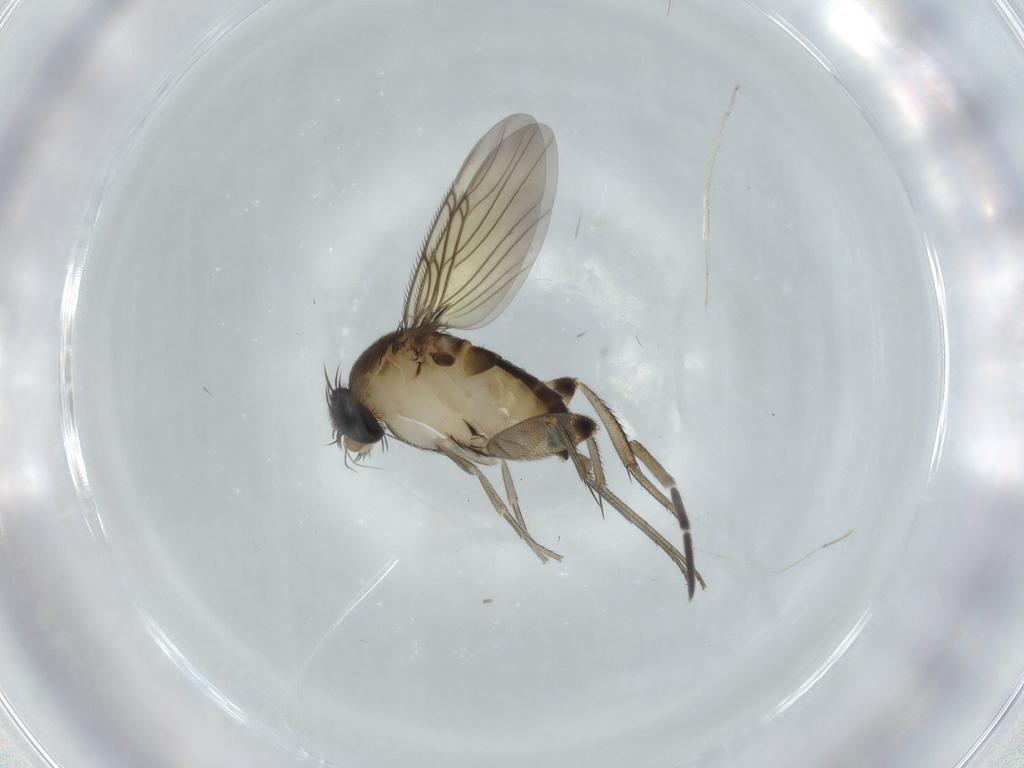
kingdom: Animalia
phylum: Arthropoda
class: Insecta
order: Diptera
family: Phoridae
